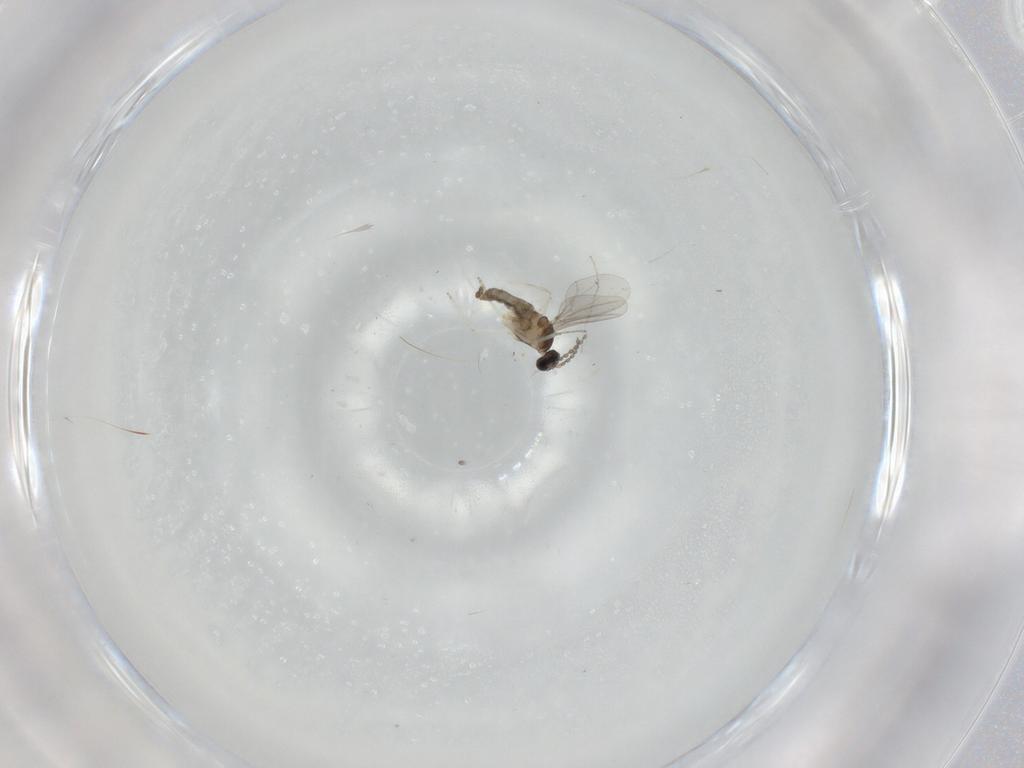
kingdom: Animalia
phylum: Arthropoda
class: Insecta
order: Diptera
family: Cecidomyiidae
